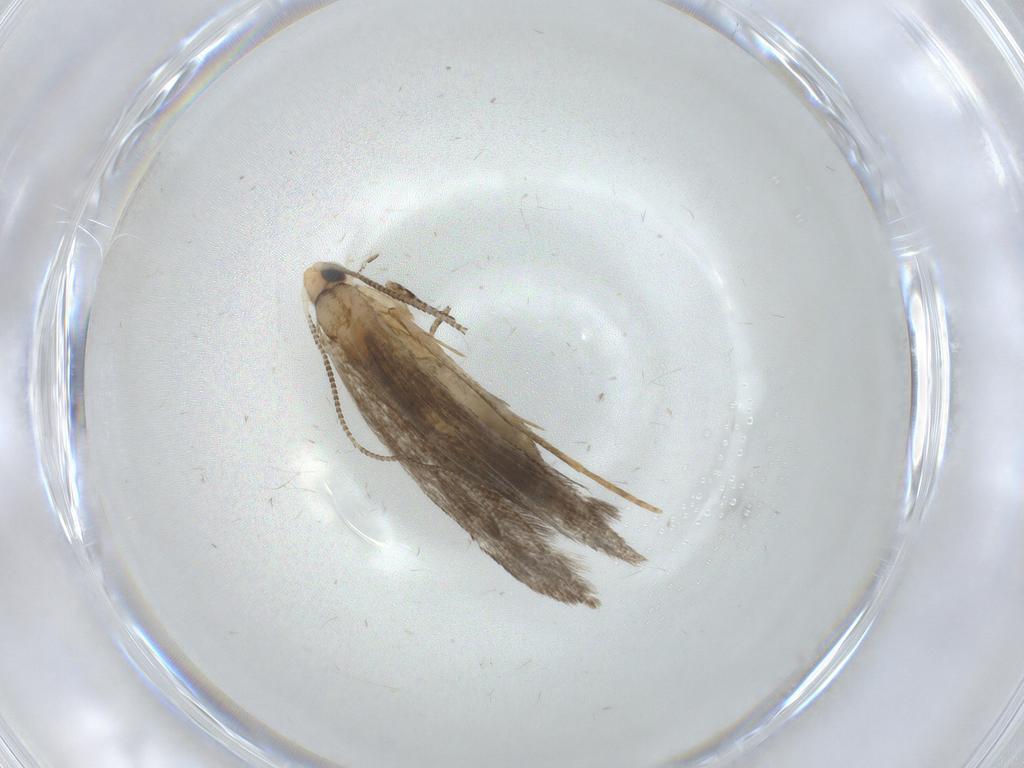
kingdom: Animalia
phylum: Arthropoda
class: Insecta
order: Lepidoptera
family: Tineidae
